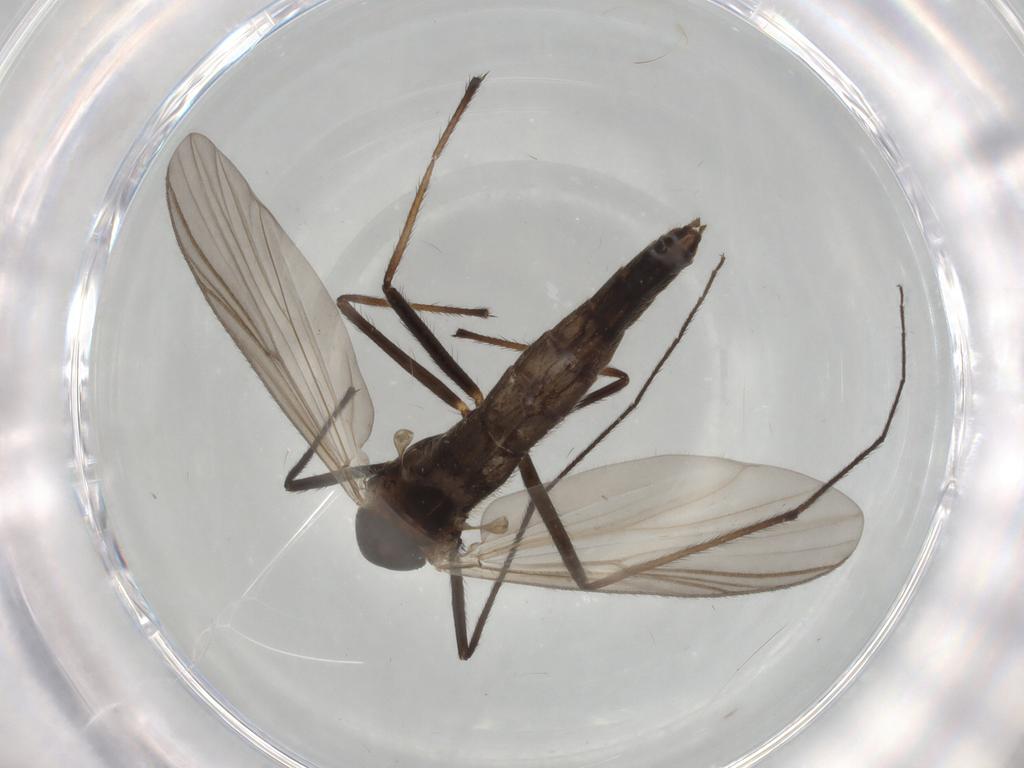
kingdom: Animalia
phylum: Arthropoda
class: Insecta
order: Diptera
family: Chironomidae
